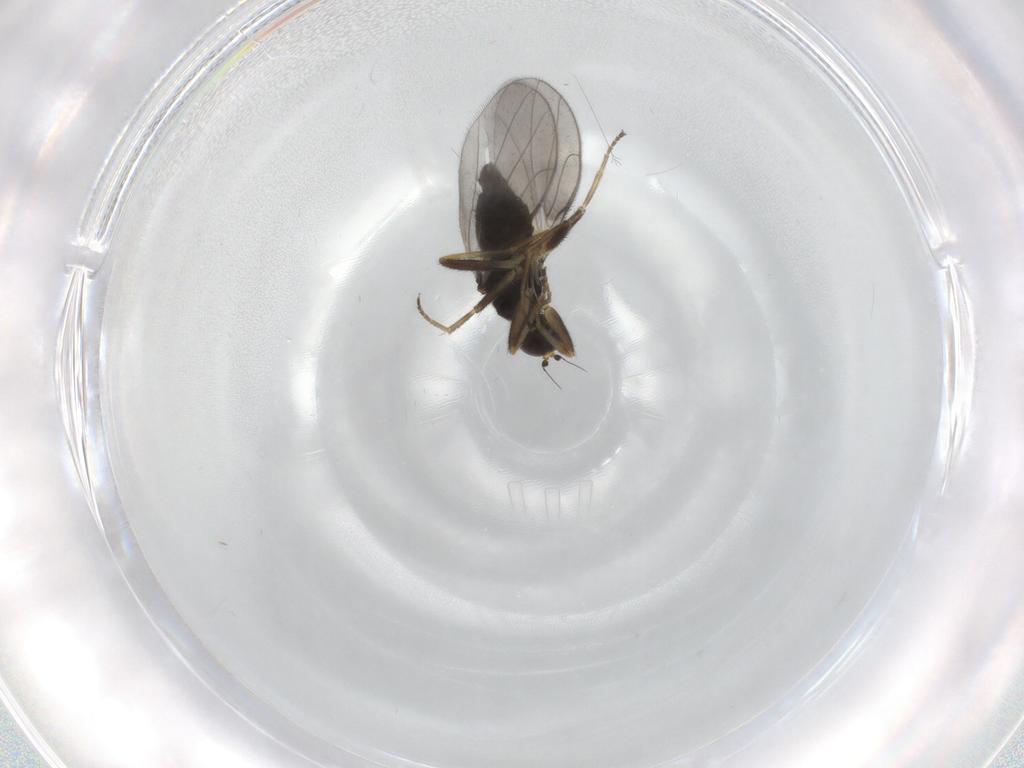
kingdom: Animalia
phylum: Arthropoda
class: Insecta
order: Diptera
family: Hybotidae
